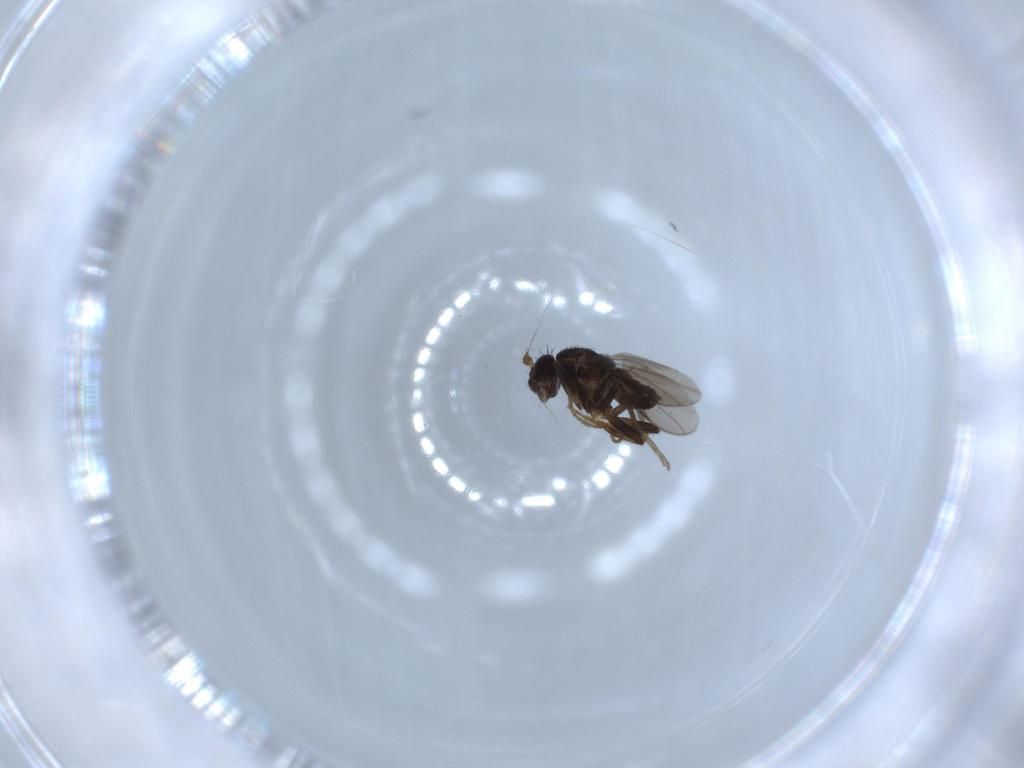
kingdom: Animalia
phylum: Arthropoda
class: Insecta
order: Diptera
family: Sphaeroceridae
